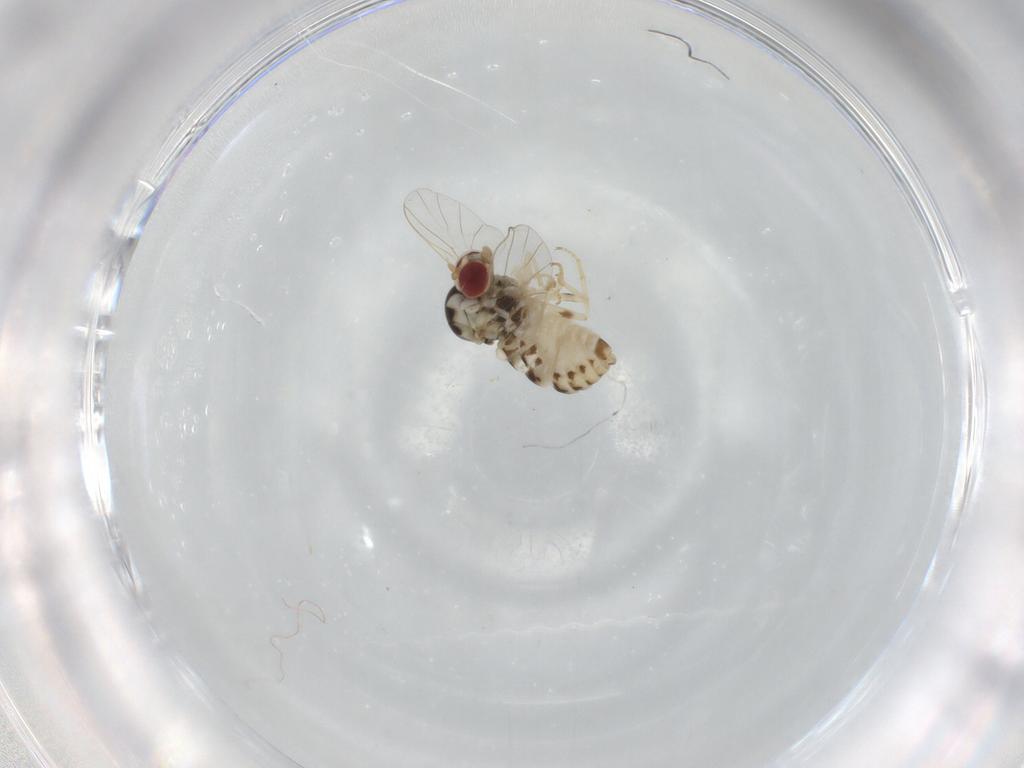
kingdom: Animalia
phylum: Arthropoda
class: Insecta
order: Diptera
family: Bombyliidae
